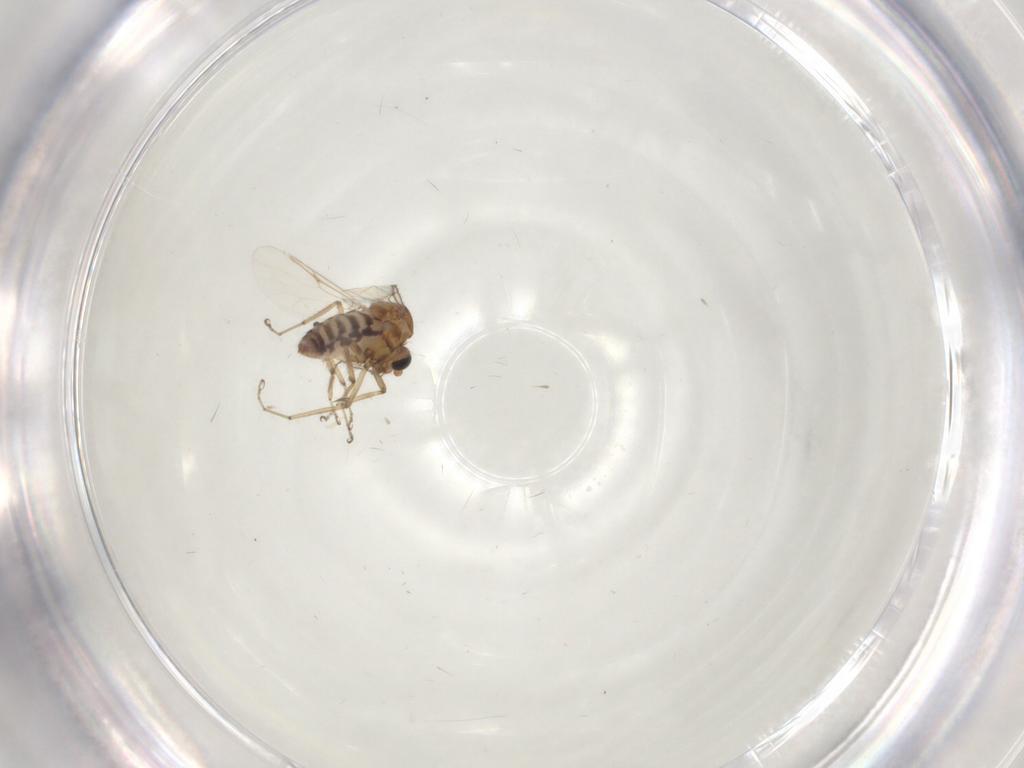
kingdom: Animalia
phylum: Arthropoda
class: Insecta
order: Diptera
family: Ceratopogonidae
